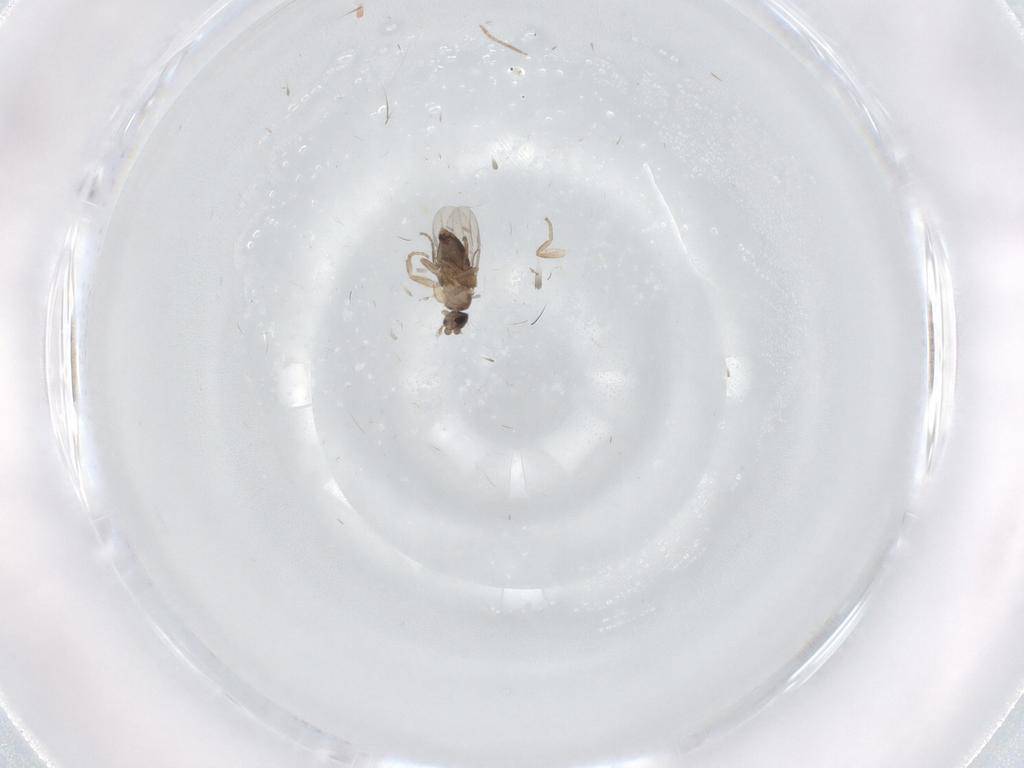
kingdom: Animalia
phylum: Arthropoda
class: Insecta
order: Diptera
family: Phoridae
